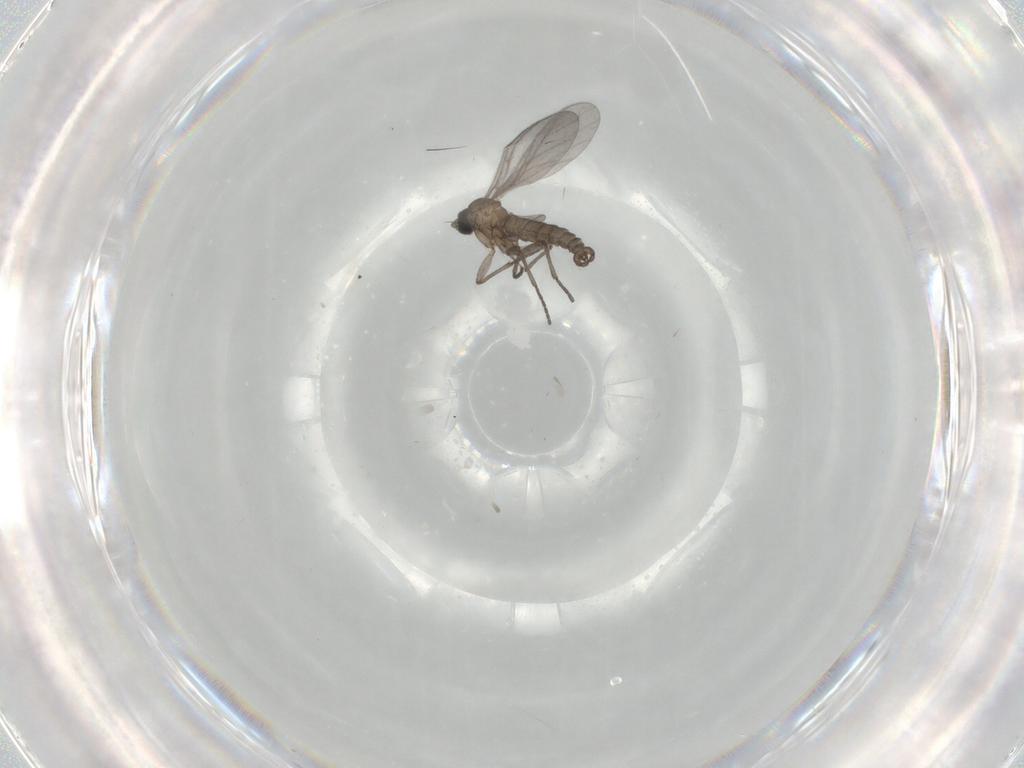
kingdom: Animalia
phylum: Arthropoda
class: Insecta
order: Diptera
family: Sciaridae
